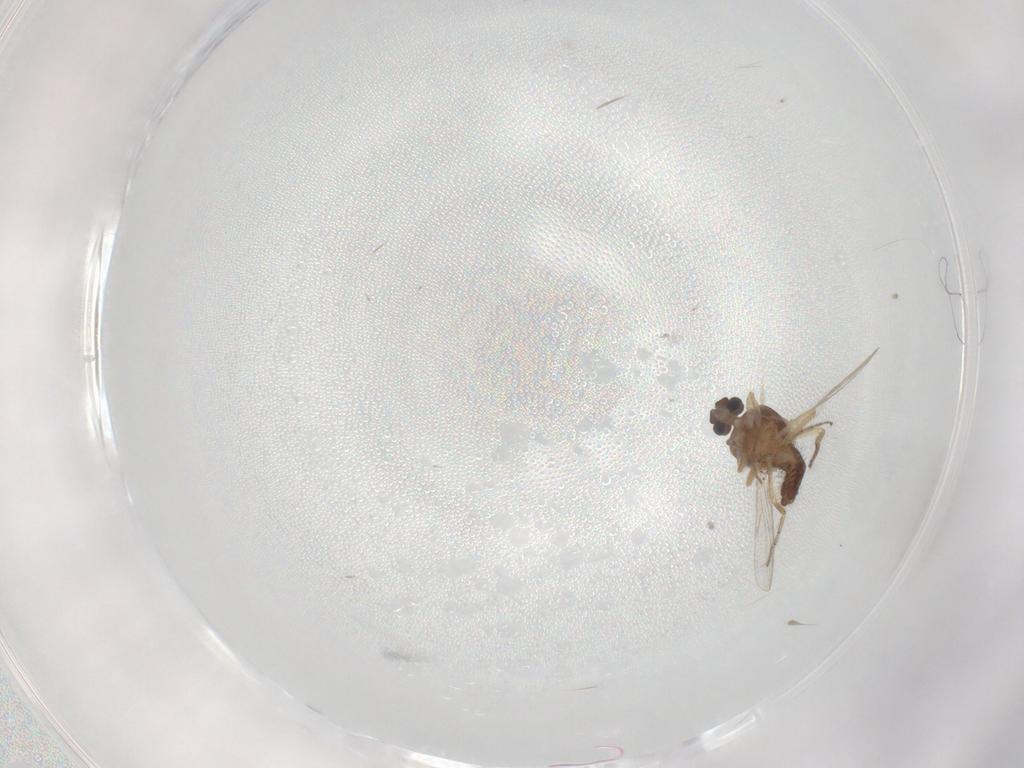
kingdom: Animalia
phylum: Arthropoda
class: Insecta
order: Diptera
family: Ceratopogonidae
